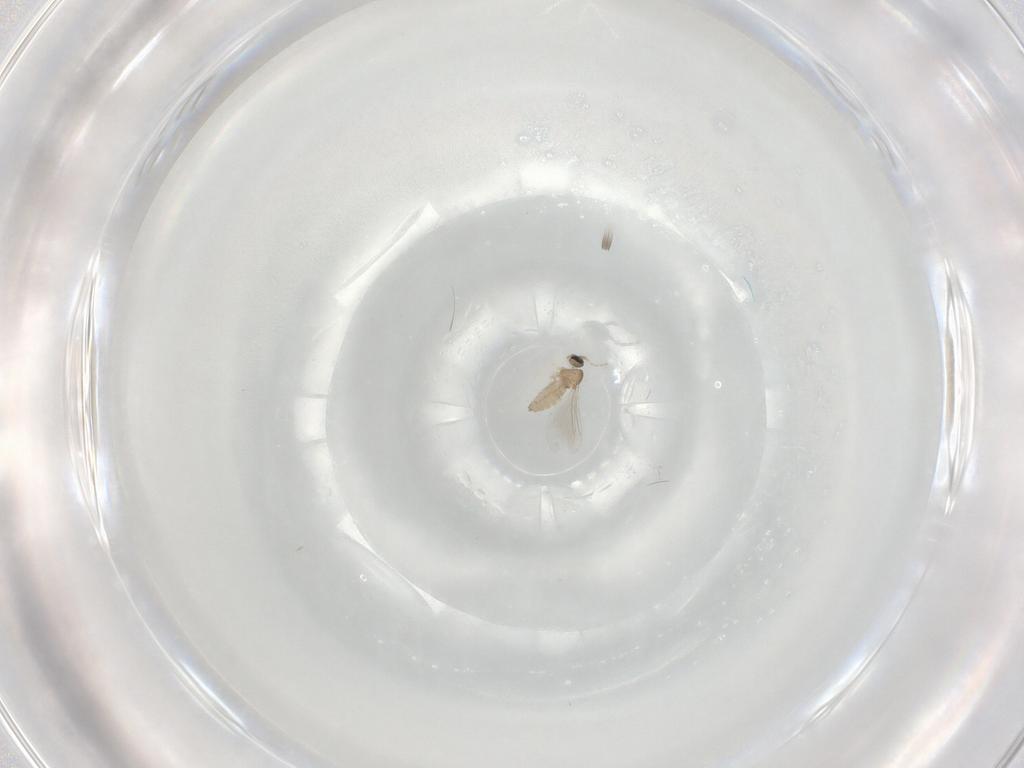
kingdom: Animalia
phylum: Arthropoda
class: Insecta
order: Diptera
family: Cecidomyiidae
